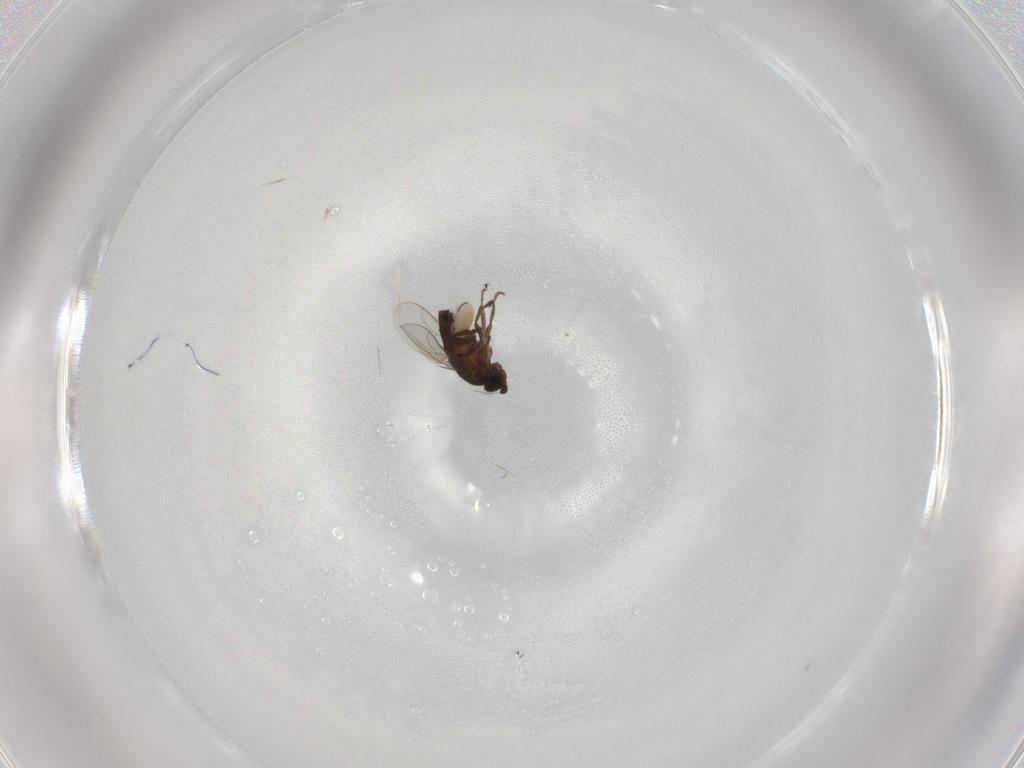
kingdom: Animalia
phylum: Arthropoda
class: Insecta
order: Diptera
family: Sphaeroceridae
